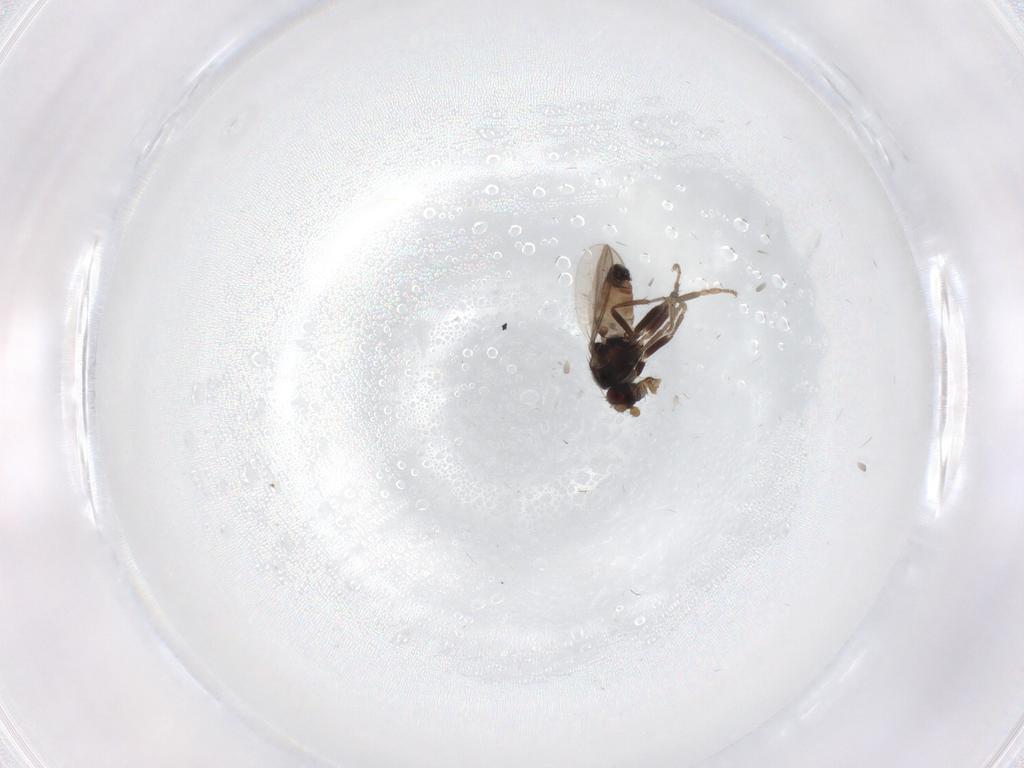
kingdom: Animalia
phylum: Arthropoda
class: Insecta
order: Diptera
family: Sphaeroceridae
